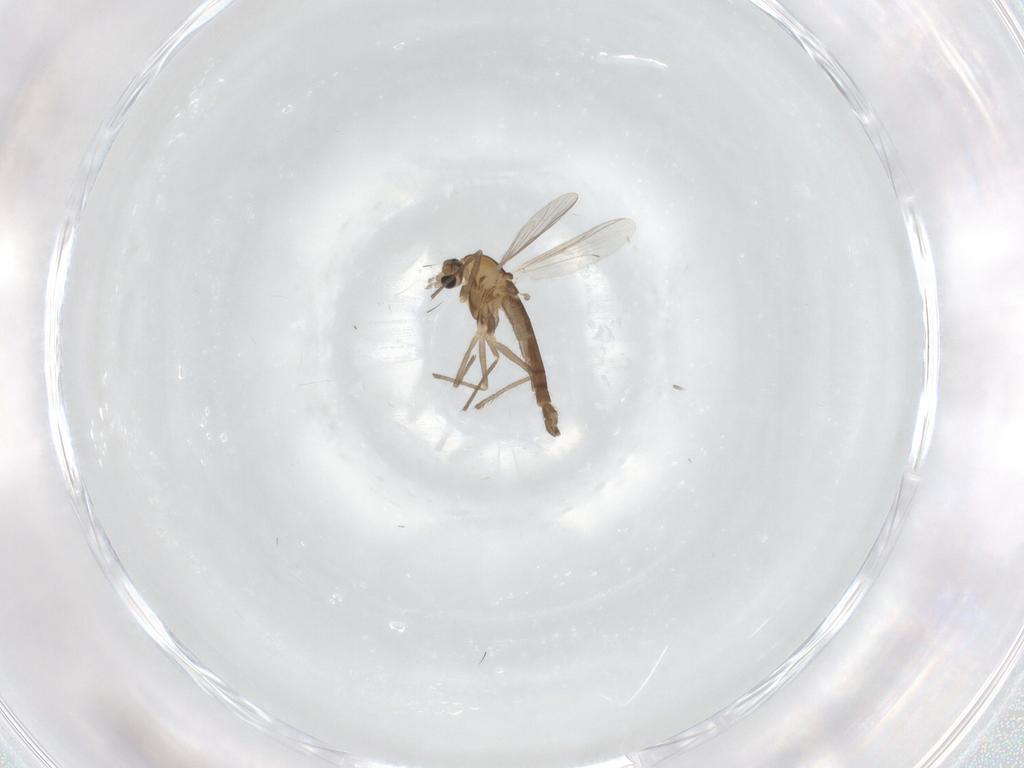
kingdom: Animalia
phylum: Arthropoda
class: Insecta
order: Diptera
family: Chironomidae
